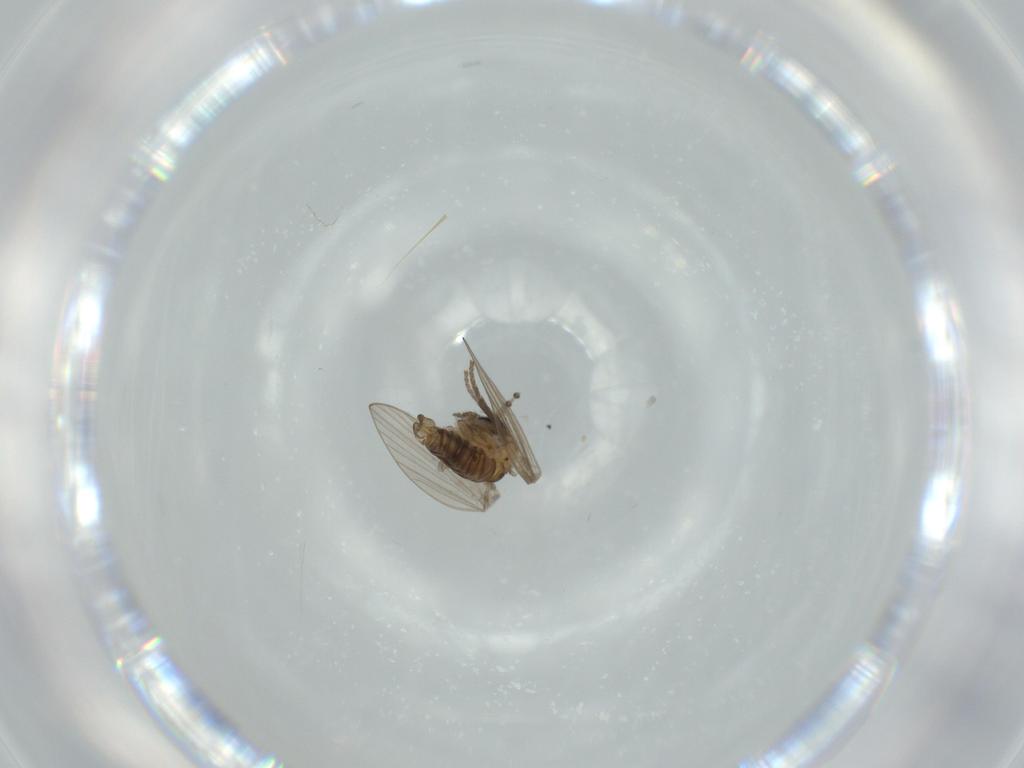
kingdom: Animalia
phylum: Arthropoda
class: Insecta
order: Diptera
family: Psychodidae
